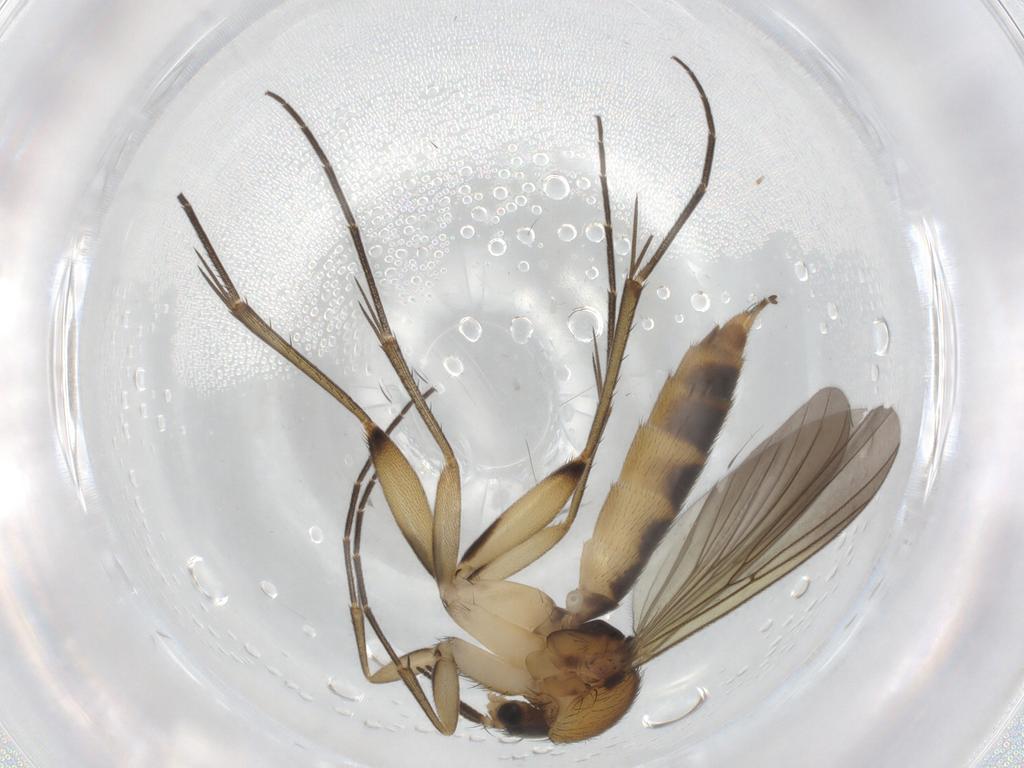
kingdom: Animalia
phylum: Arthropoda
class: Insecta
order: Diptera
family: Mycetophilidae
